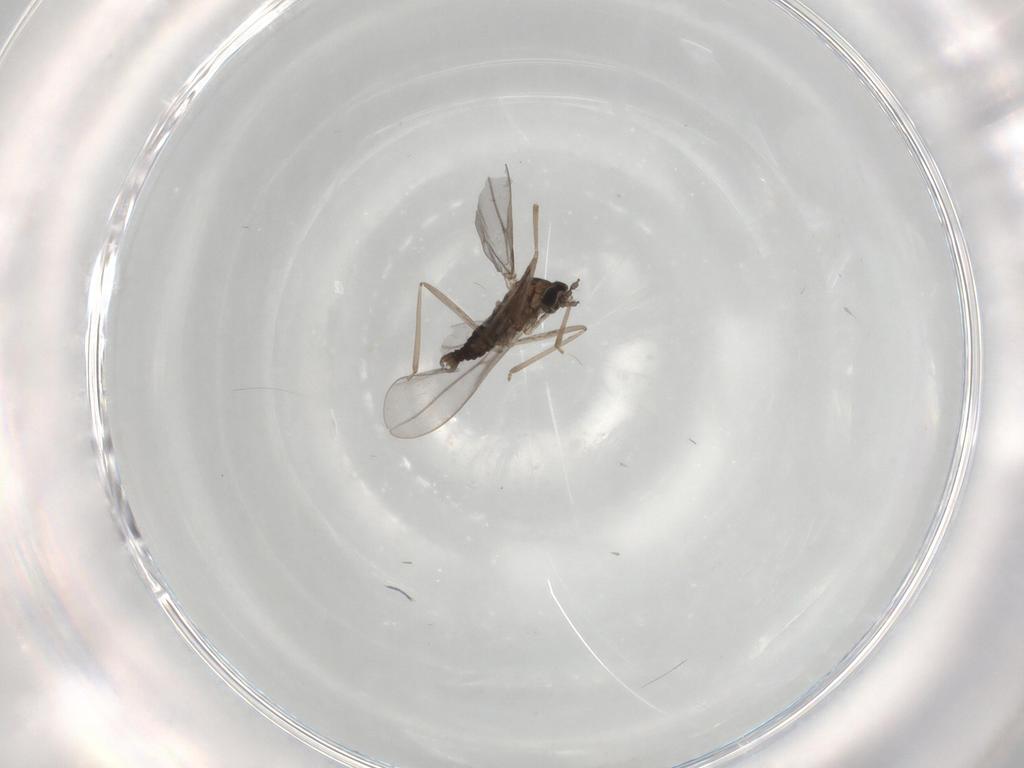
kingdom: Animalia
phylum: Arthropoda
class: Insecta
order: Diptera
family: Cecidomyiidae
